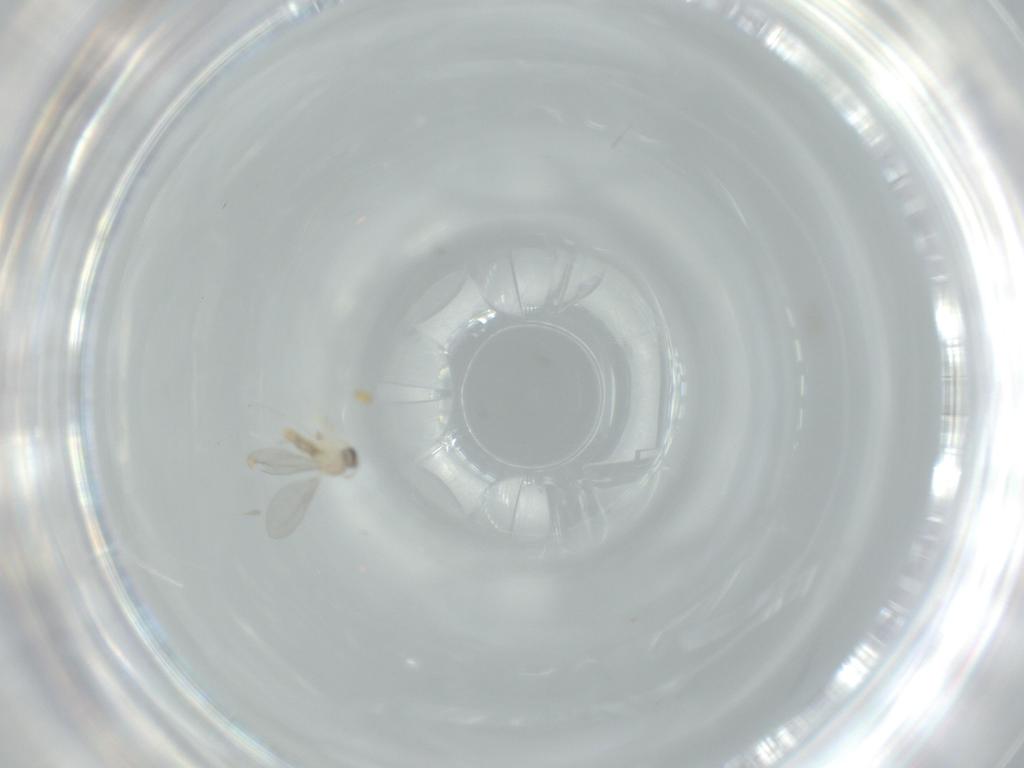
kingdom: Animalia
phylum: Arthropoda
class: Insecta
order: Diptera
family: Cecidomyiidae
